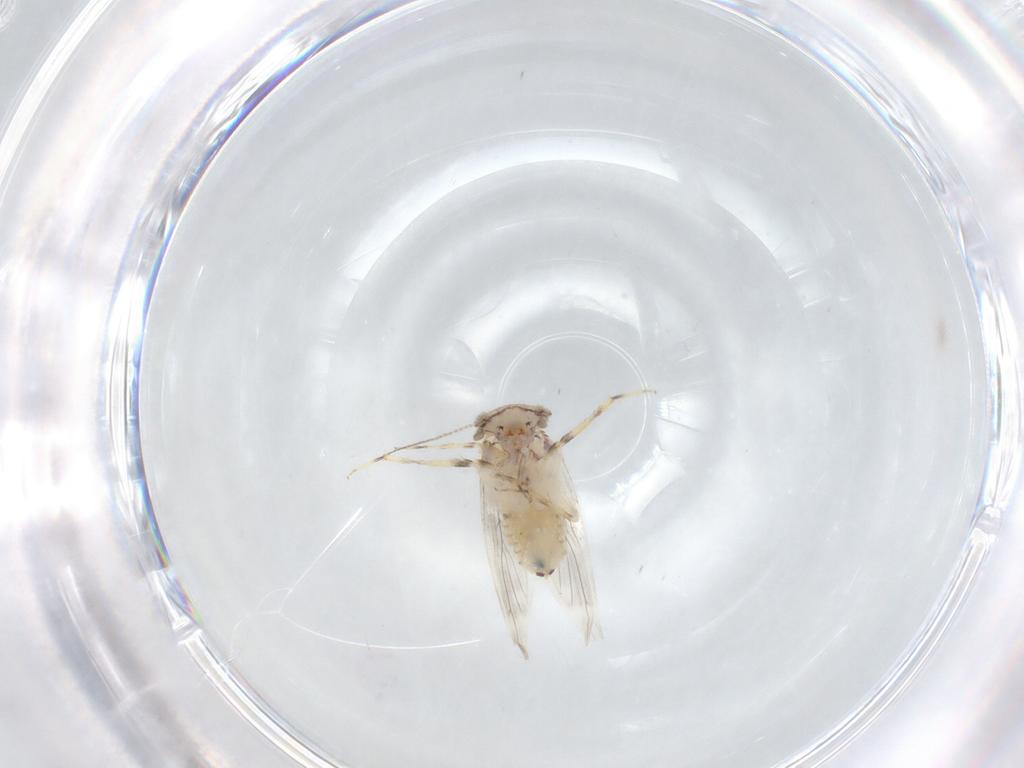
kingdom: Animalia
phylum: Arthropoda
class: Insecta
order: Psocodea
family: Lepidopsocidae
